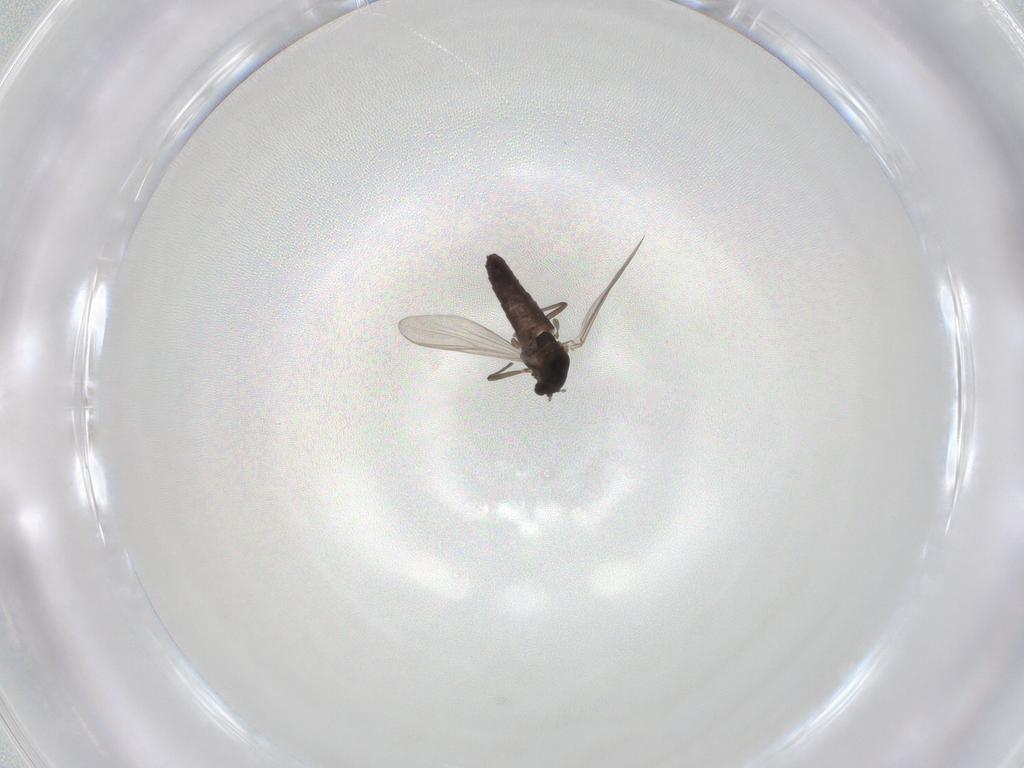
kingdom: Animalia
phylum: Arthropoda
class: Insecta
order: Diptera
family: Chironomidae
